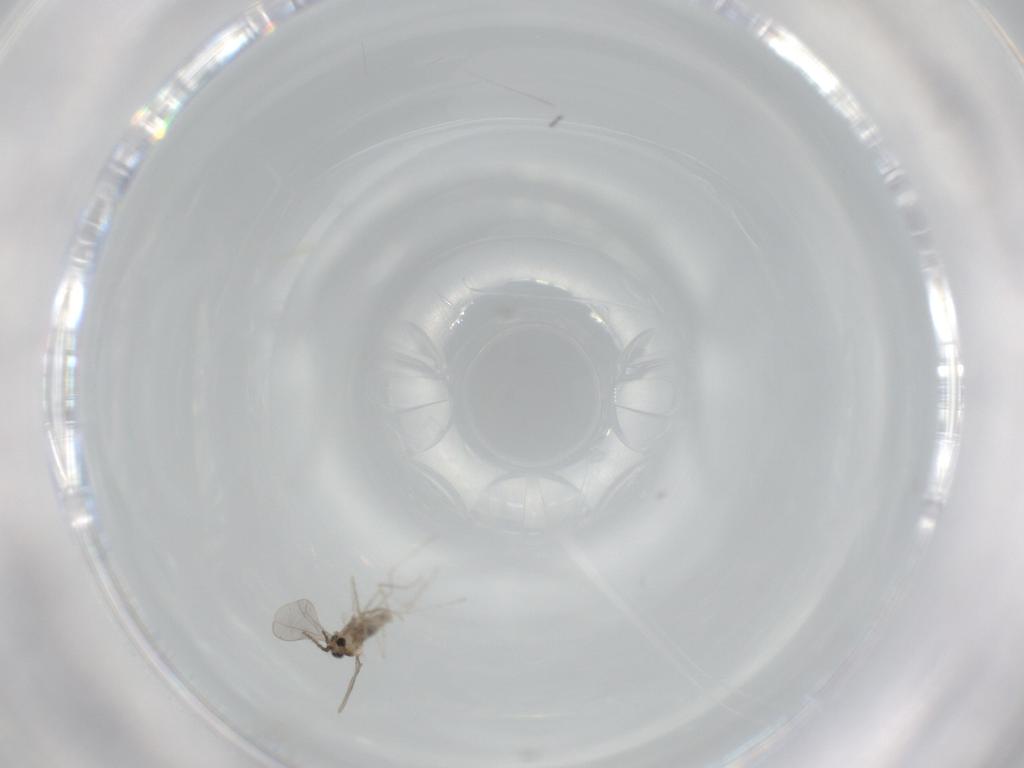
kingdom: Animalia
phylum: Arthropoda
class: Insecta
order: Diptera
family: Cecidomyiidae
